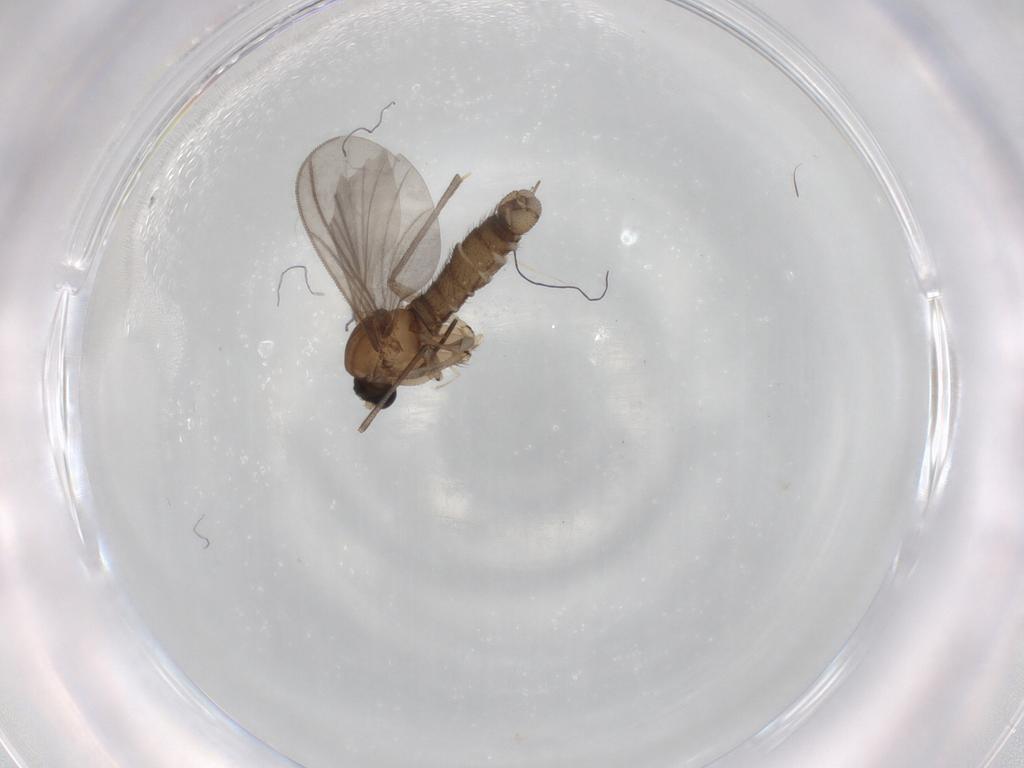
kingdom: Animalia
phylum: Arthropoda
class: Insecta
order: Diptera
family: Sciaridae
